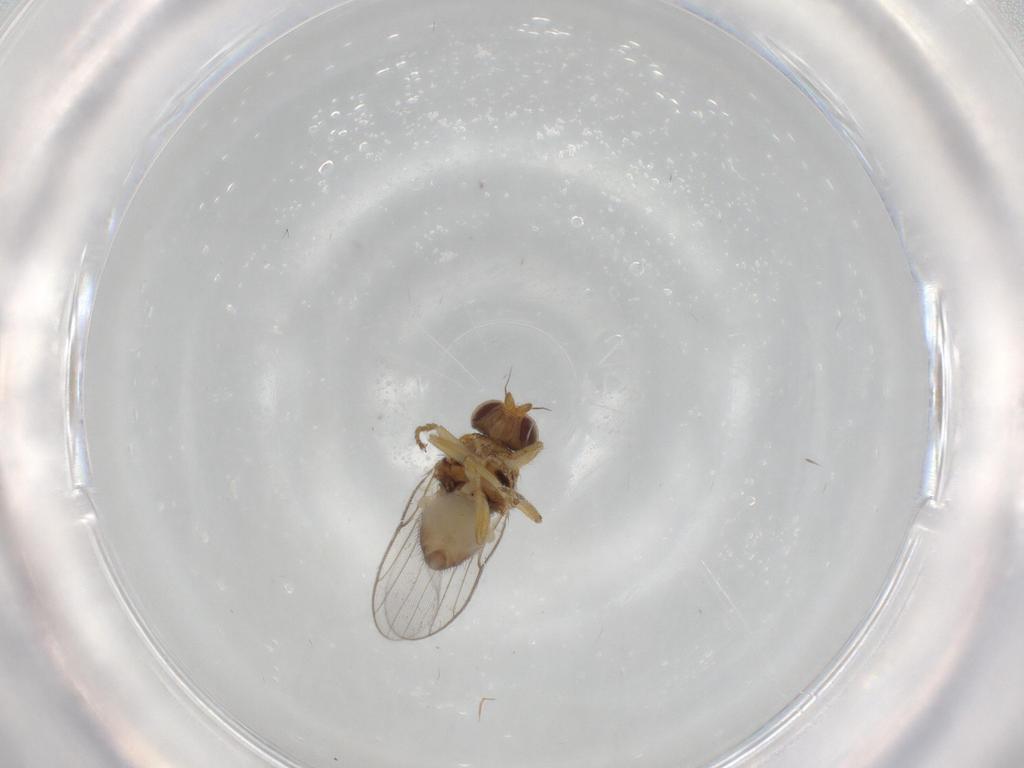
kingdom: Animalia
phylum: Arthropoda
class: Insecta
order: Diptera
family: Chloropidae
